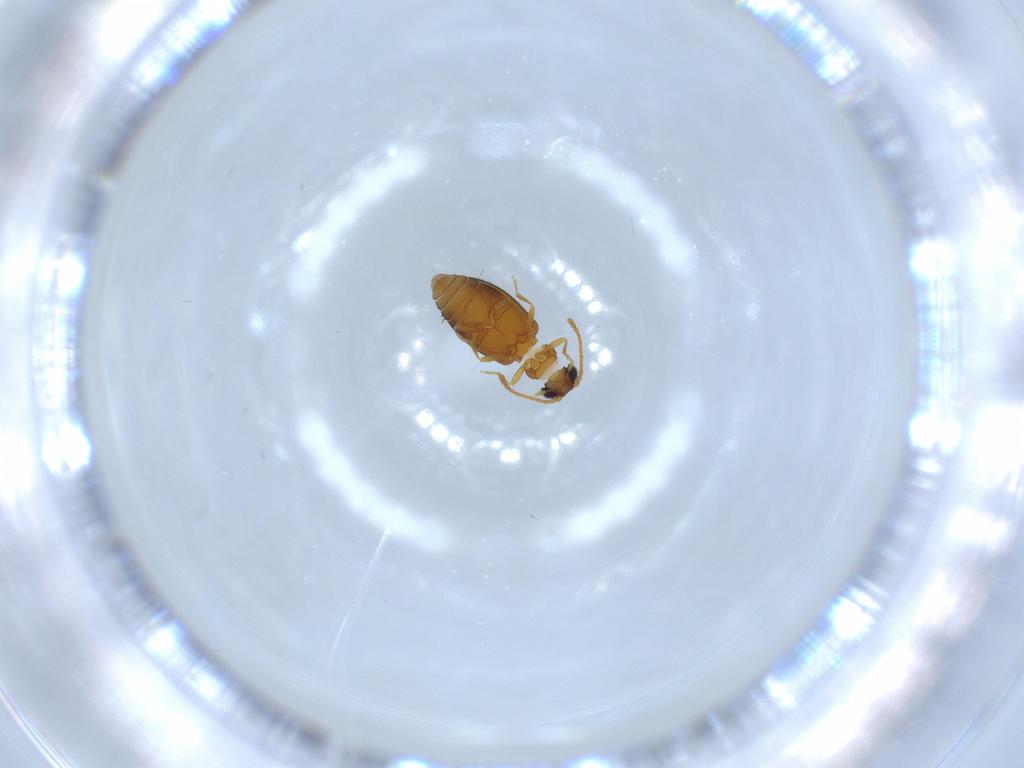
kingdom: Animalia
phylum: Arthropoda
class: Insecta
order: Coleoptera
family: Aderidae
